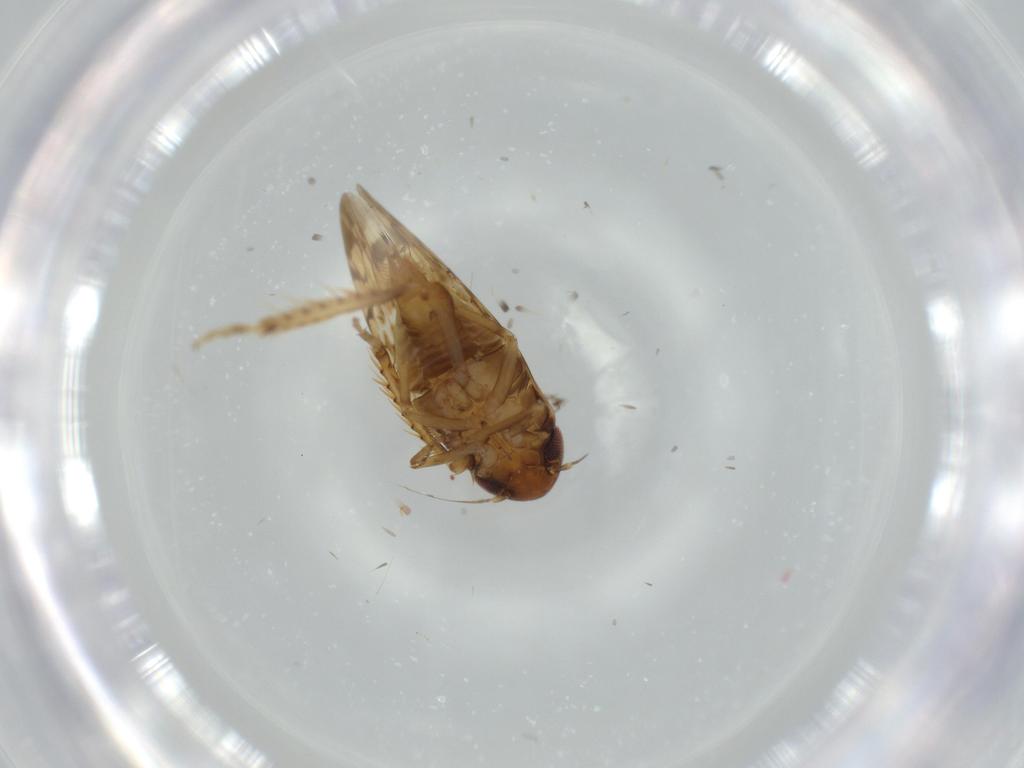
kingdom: Animalia
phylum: Arthropoda
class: Insecta
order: Hemiptera
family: Cicadellidae
